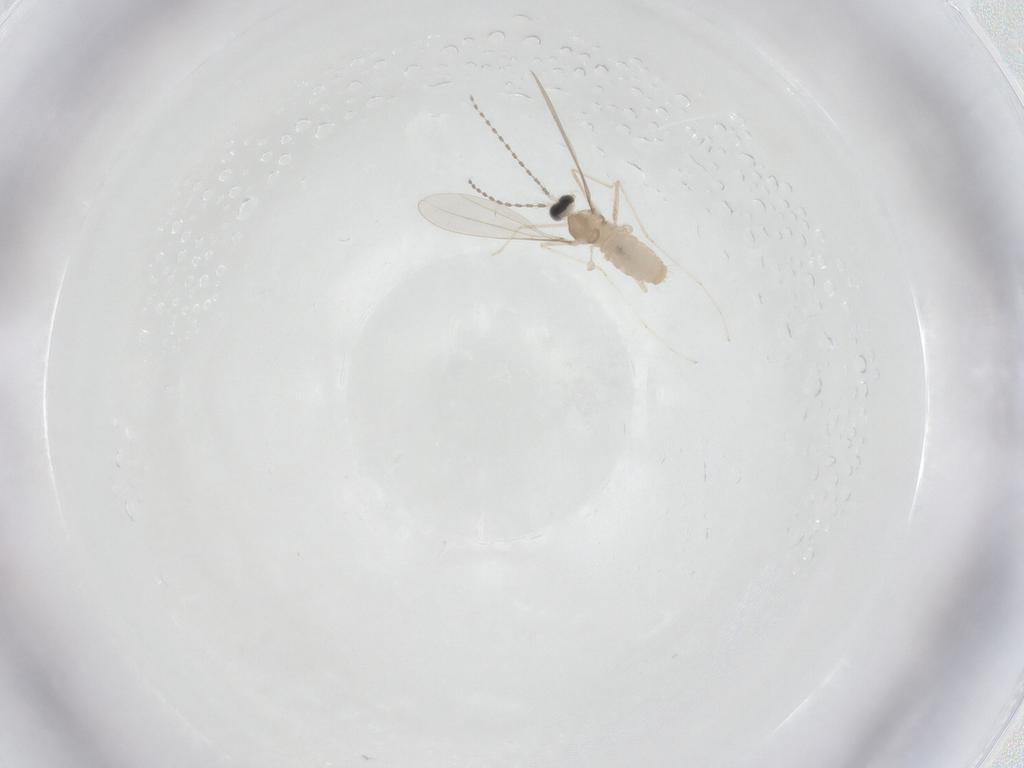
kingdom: Animalia
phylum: Arthropoda
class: Insecta
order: Diptera
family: Cecidomyiidae
